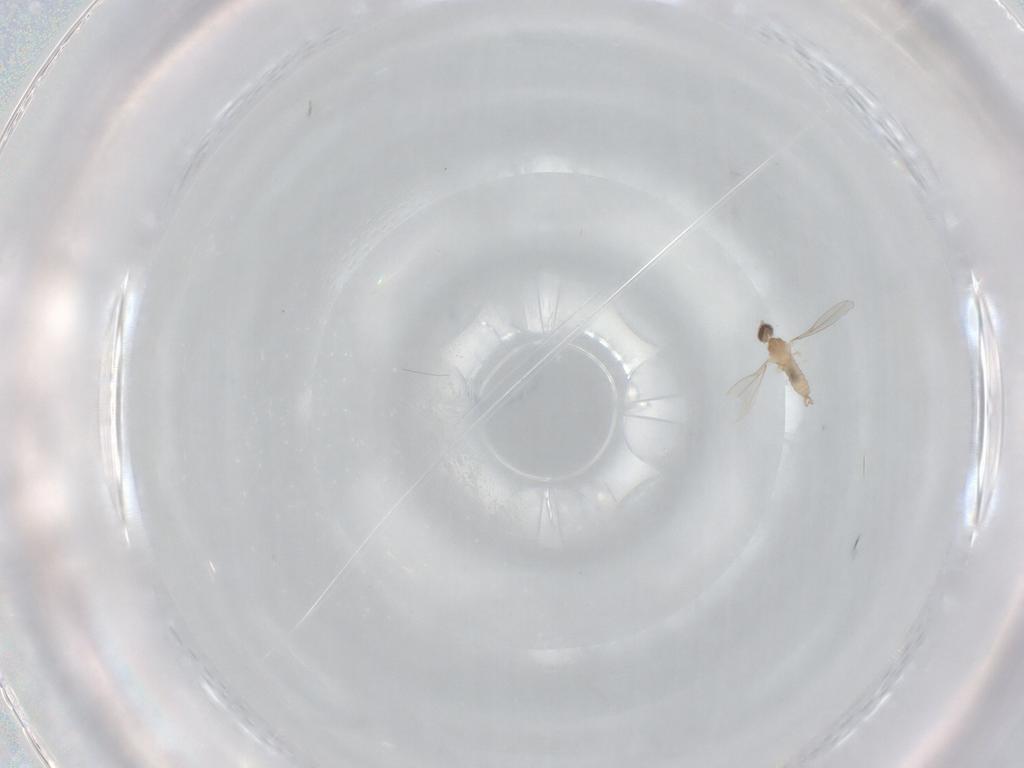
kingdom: Animalia
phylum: Arthropoda
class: Insecta
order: Diptera
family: Cecidomyiidae
